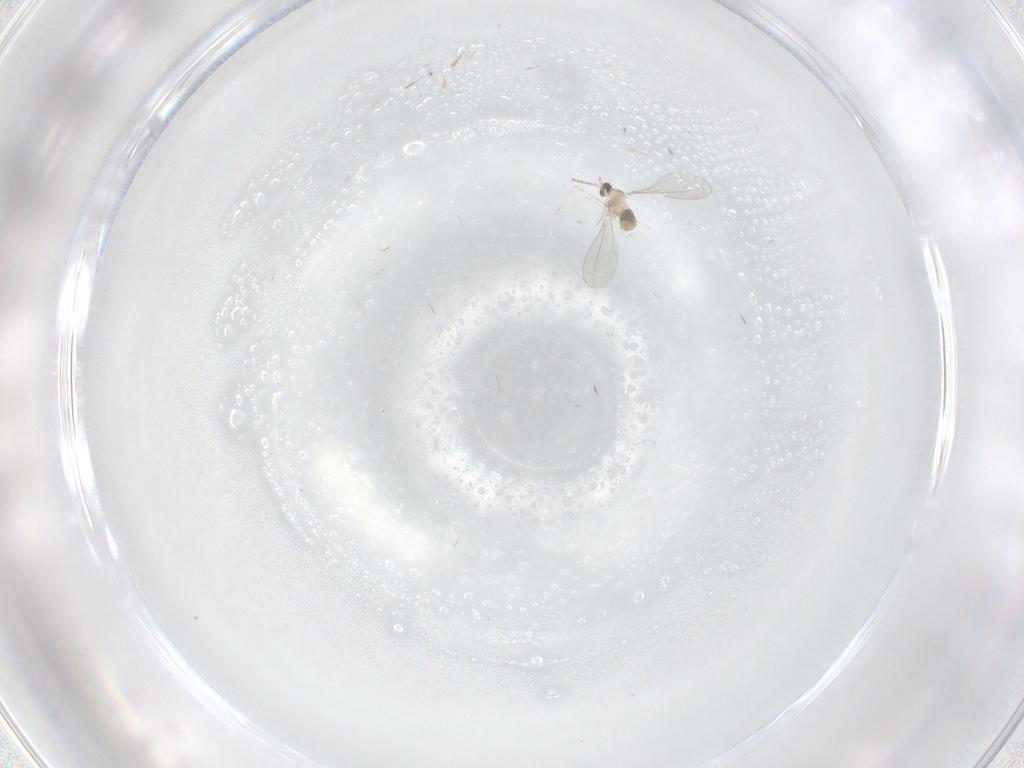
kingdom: Animalia
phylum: Arthropoda
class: Insecta
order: Diptera
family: Cecidomyiidae
